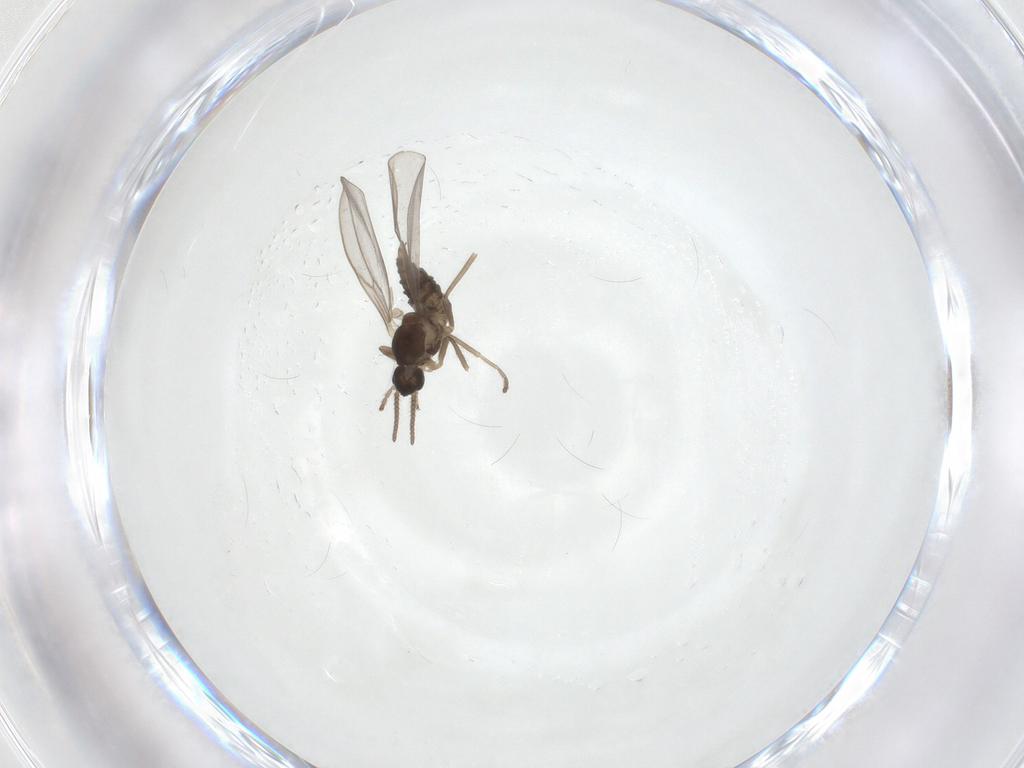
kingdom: Animalia
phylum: Arthropoda
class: Insecta
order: Diptera
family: Cecidomyiidae
